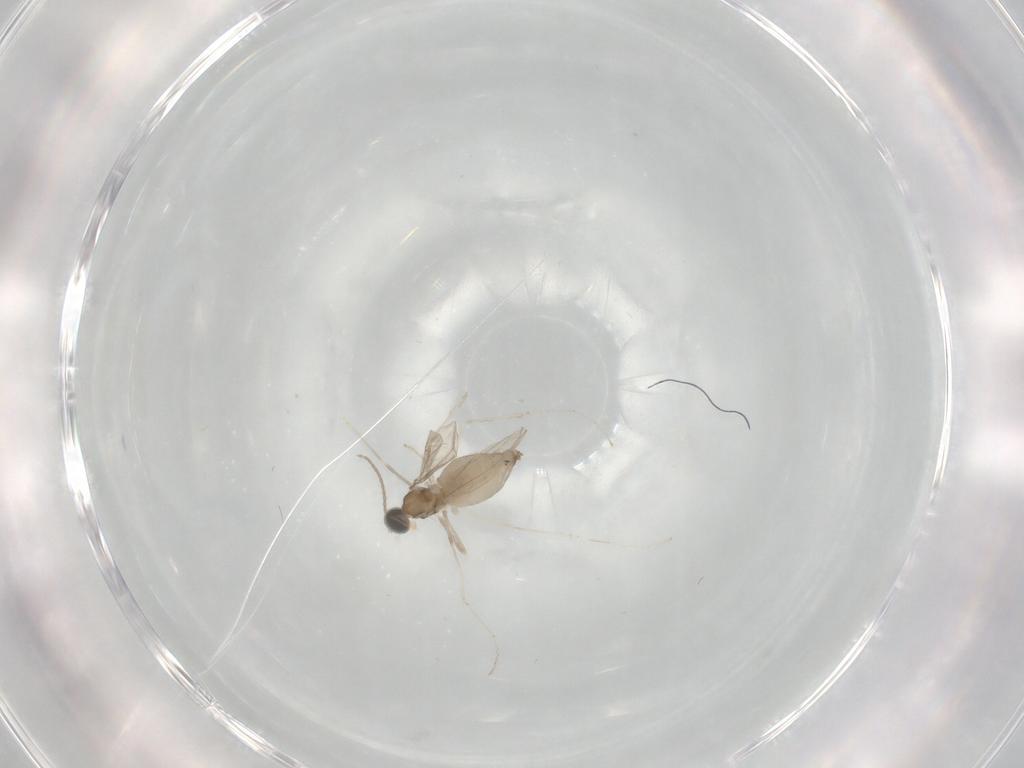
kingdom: Animalia
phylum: Arthropoda
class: Insecta
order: Diptera
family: Cecidomyiidae
